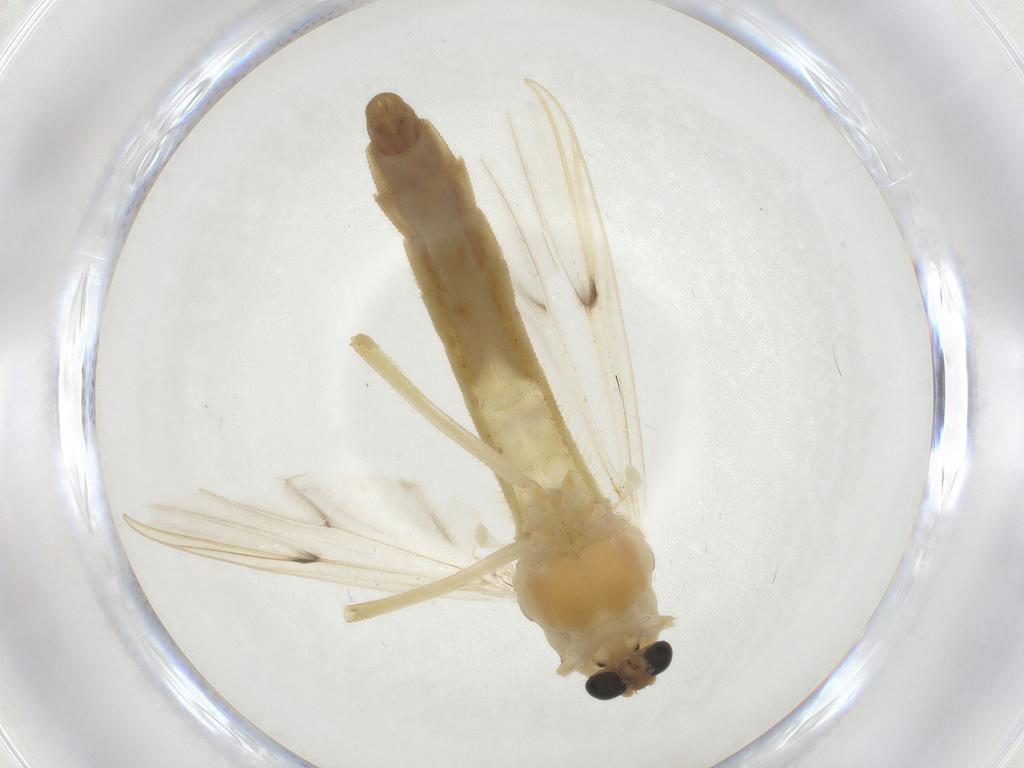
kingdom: Animalia
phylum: Arthropoda
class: Insecta
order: Diptera
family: Chironomidae
